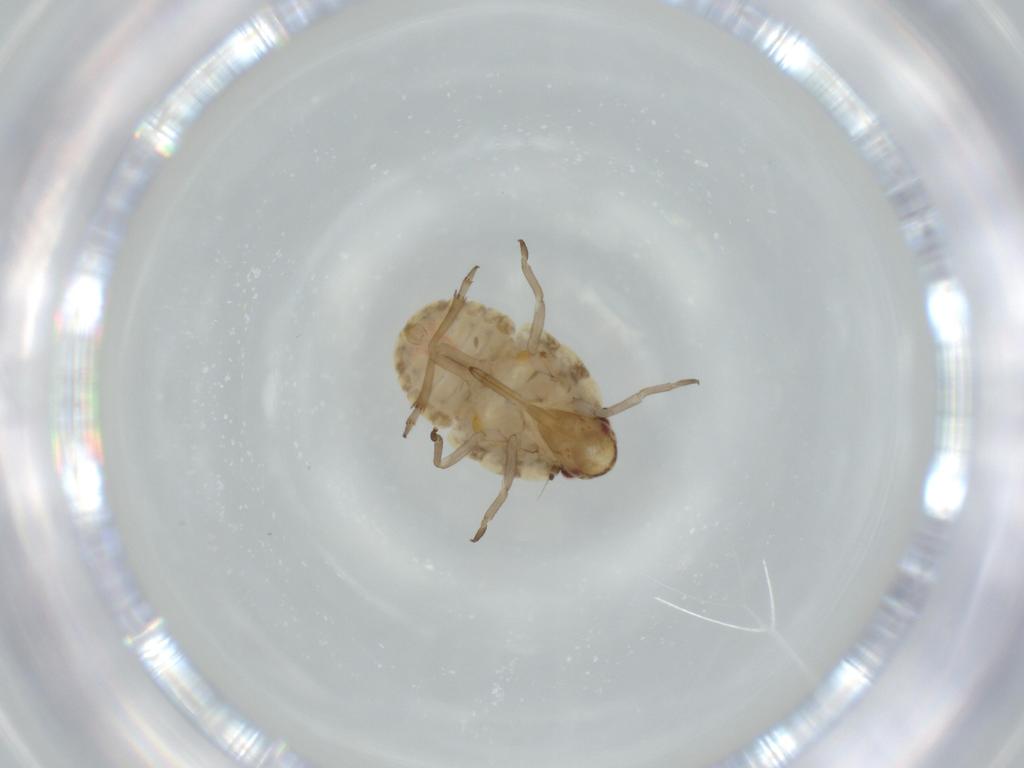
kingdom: Animalia
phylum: Arthropoda
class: Insecta
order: Hemiptera
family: Flatidae
